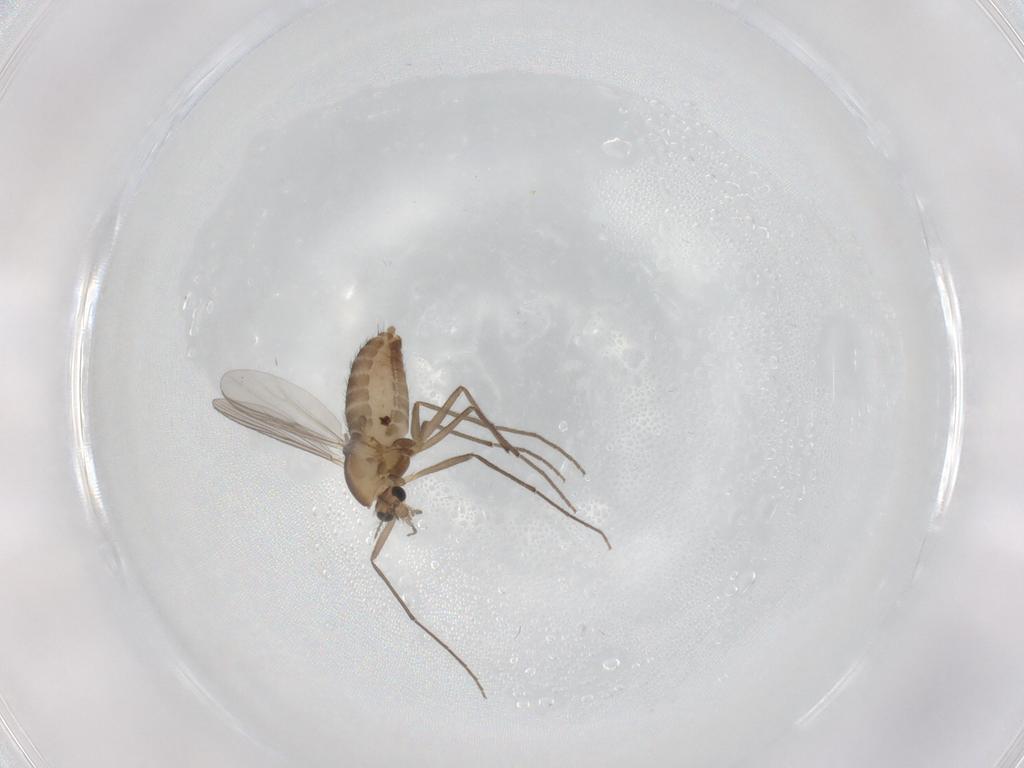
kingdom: Animalia
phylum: Arthropoda
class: Insecta
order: Diptera
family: Chironomidae
